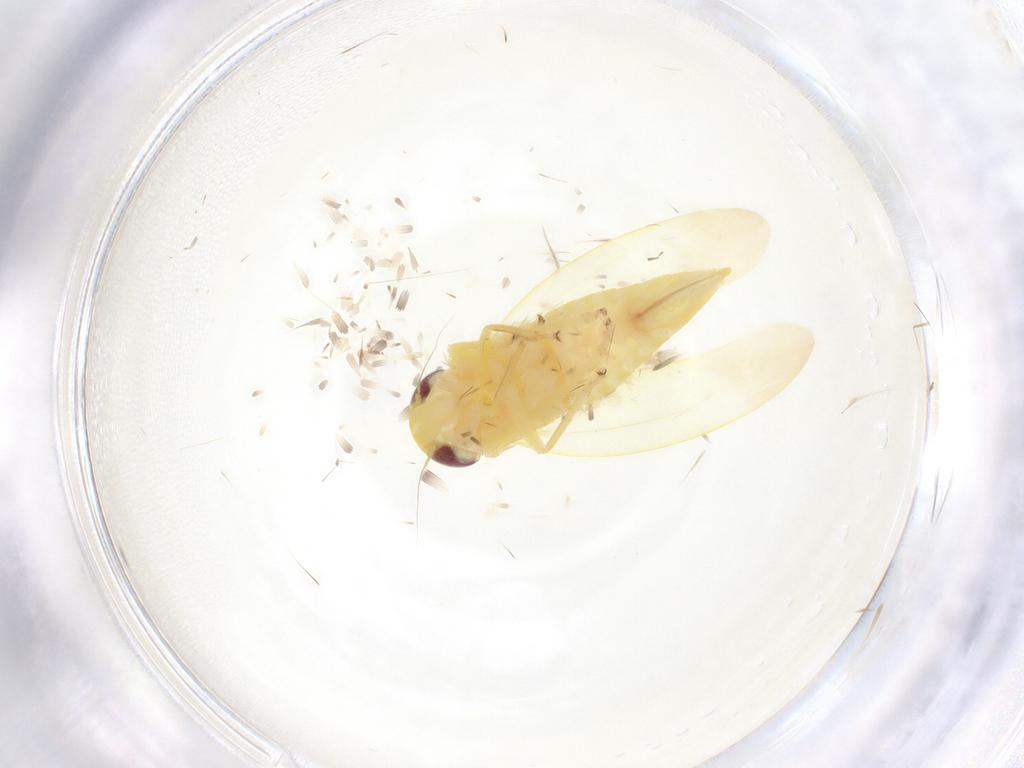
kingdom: Animalia
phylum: Arthropoda
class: Insecta
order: Hemiptera
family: Cicadellidae
